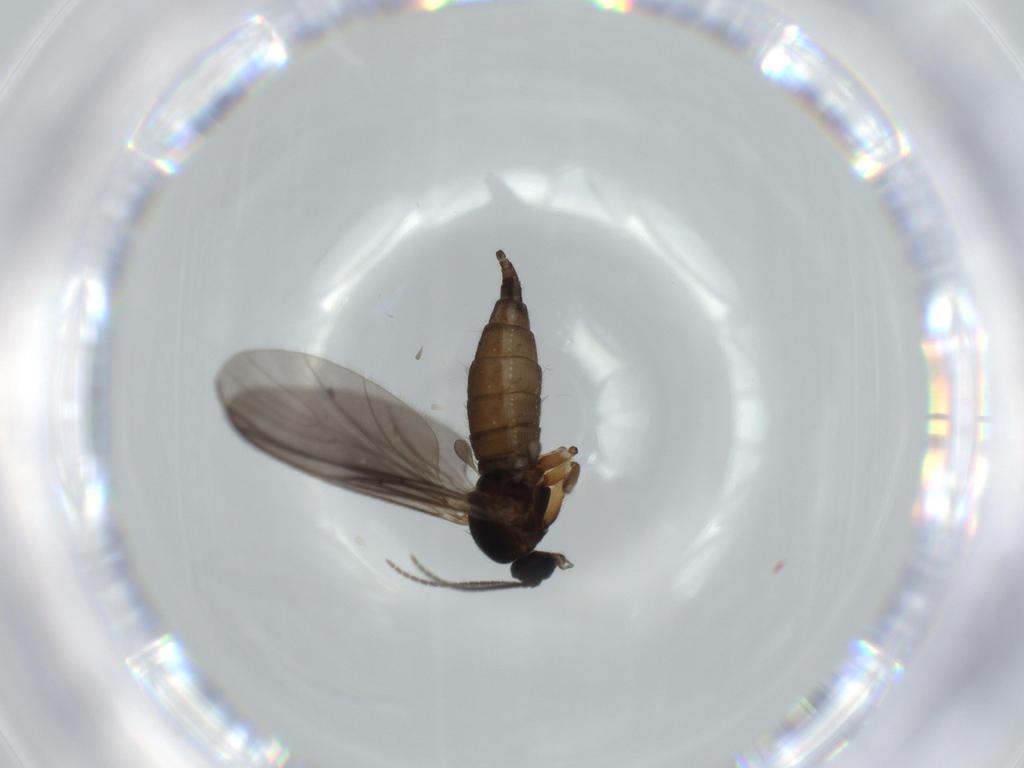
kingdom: Animalia
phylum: Arthropoda
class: Insecta
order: Diptera
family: Sciaridae
